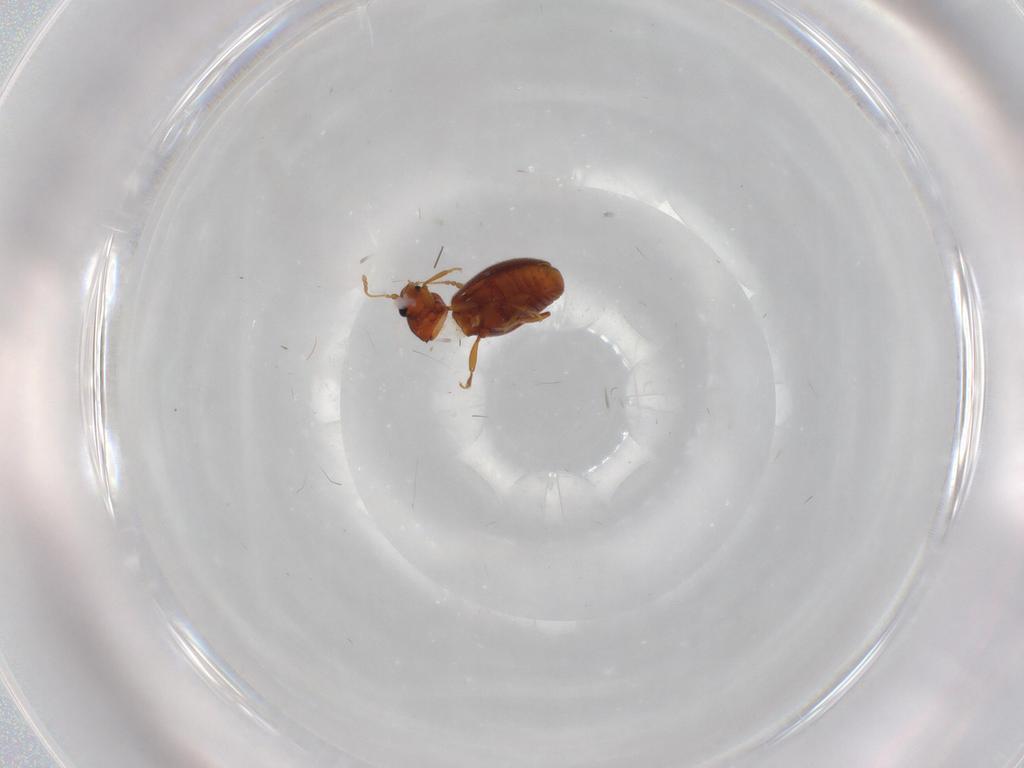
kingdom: Animalia
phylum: Arthropoda
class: Insecta
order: Coleoptera
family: Latridiidae
